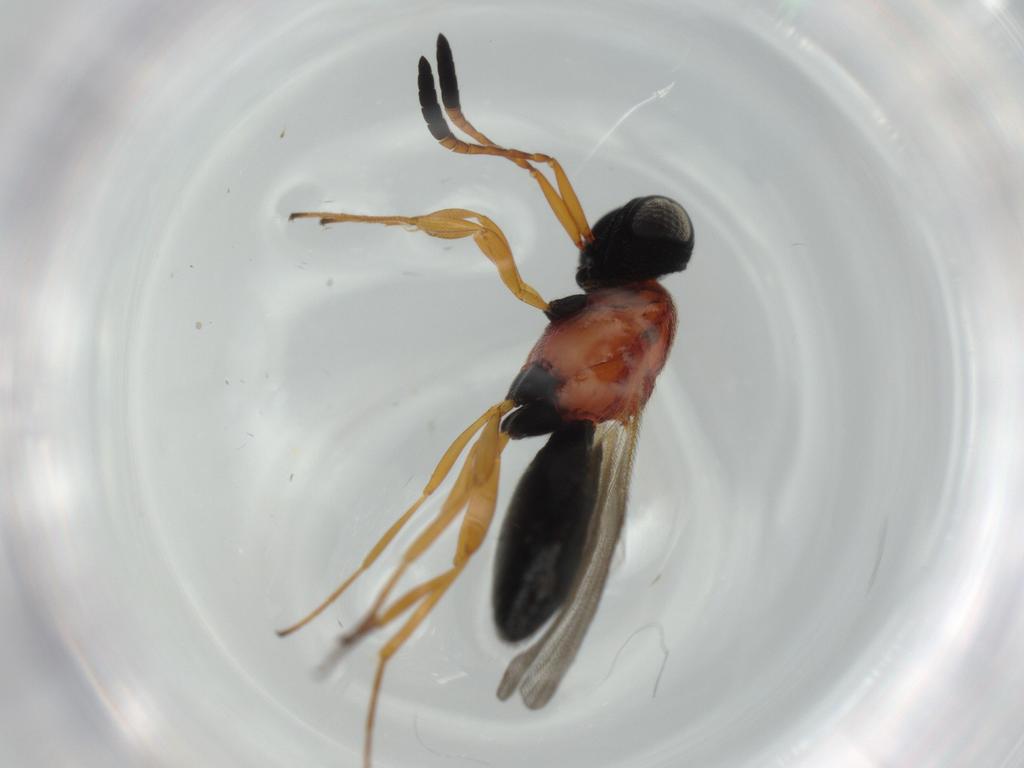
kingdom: Animalia
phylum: Arthropoda
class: Insecta
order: Hymenoptera
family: Scelionidae
